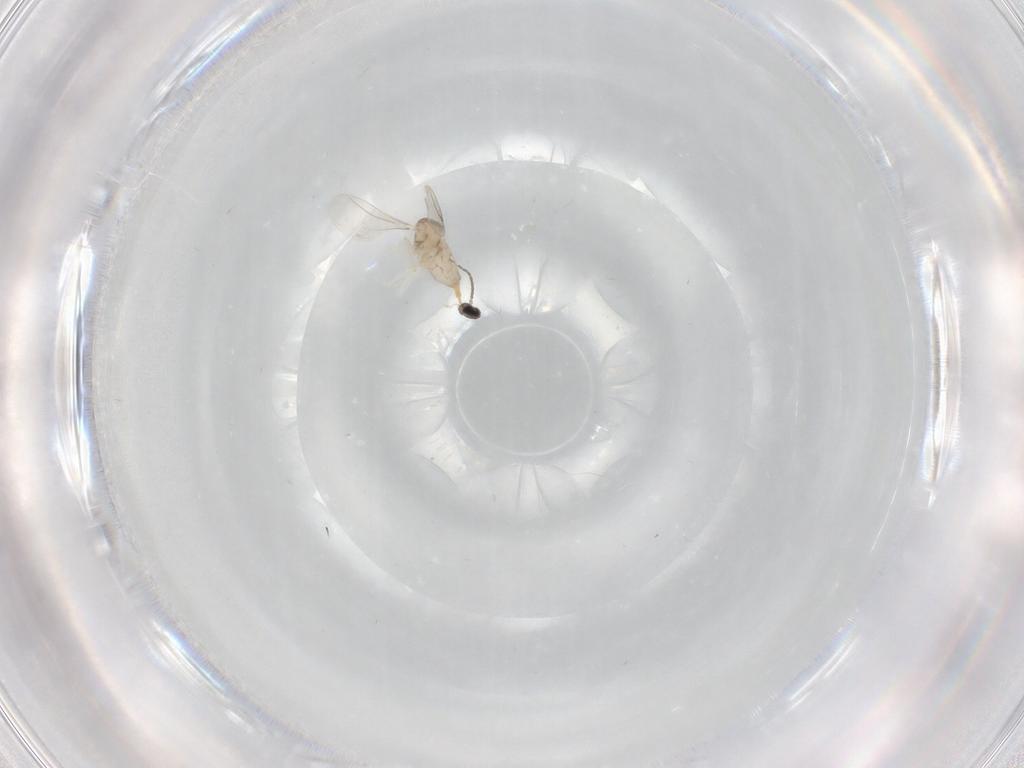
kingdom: Animalia
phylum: Arthropoda
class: Insecta
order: Diptera
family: Cecidomyiidae
